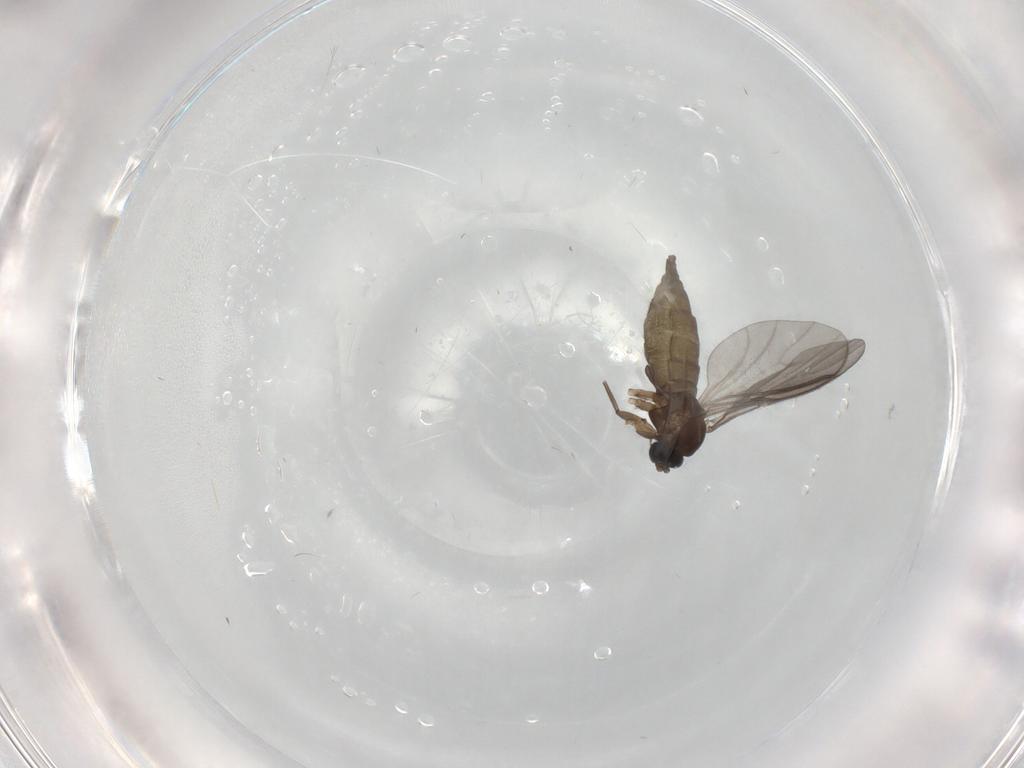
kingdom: Animalia
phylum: Arthropoda
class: Insecta
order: Diptera
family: Sciaridae
